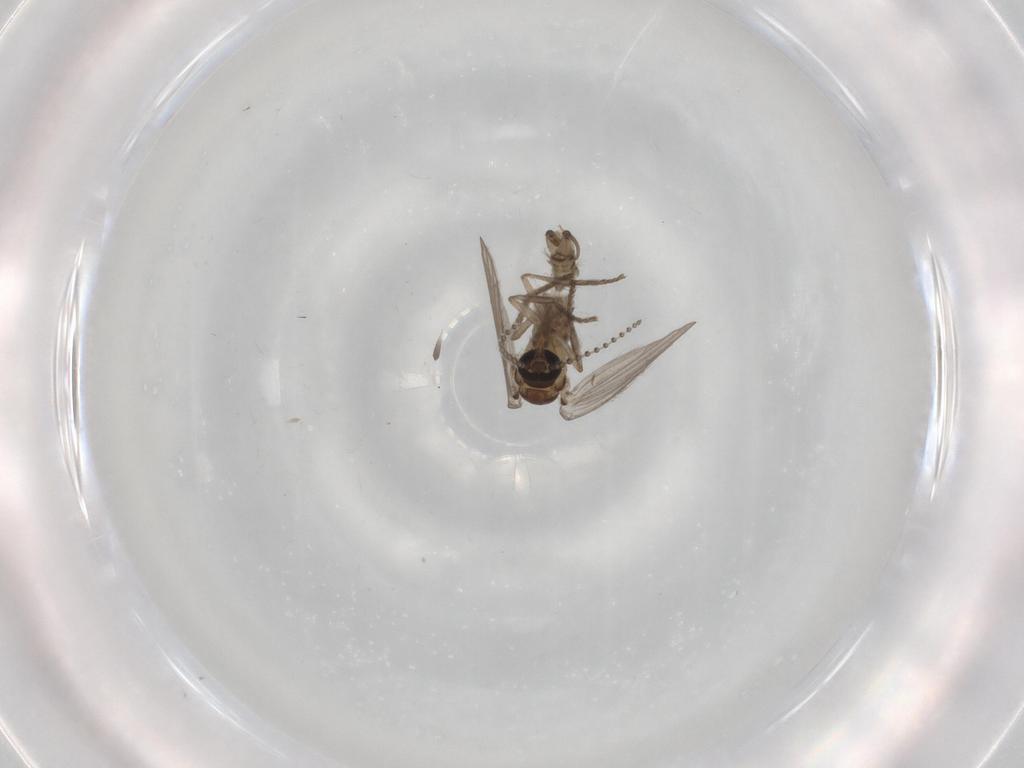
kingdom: Animalia
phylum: Arthropoda
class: Insecta
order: Diptera
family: Psychodidae
